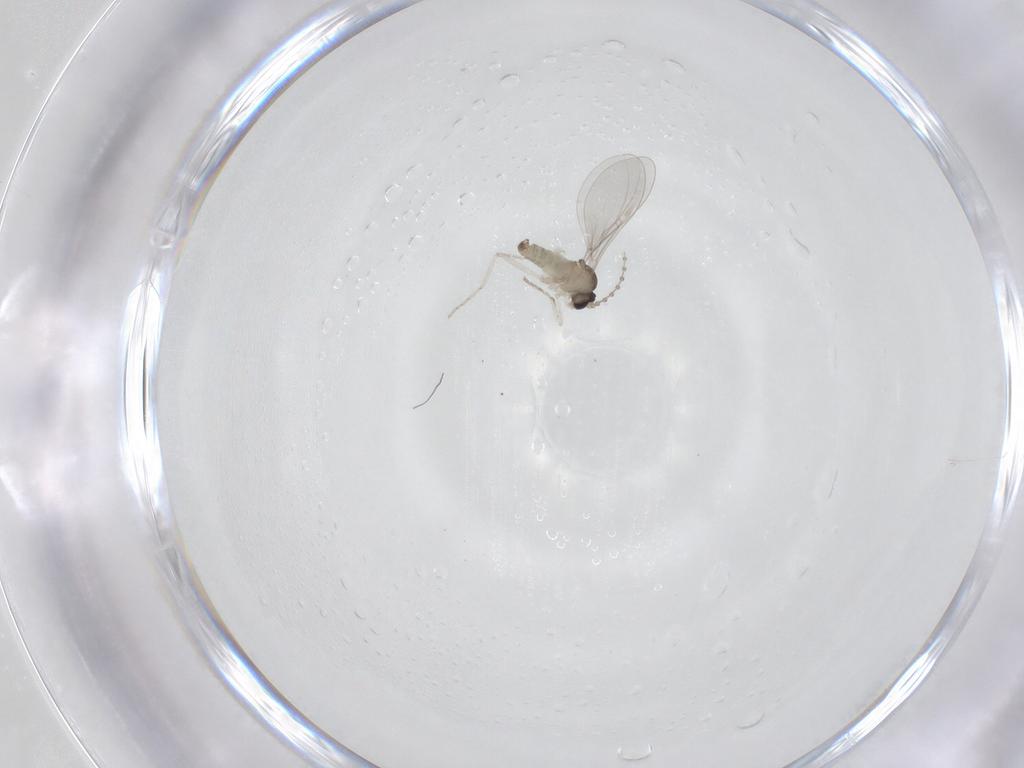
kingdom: Animalia
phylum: Arthropoda
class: Insecta
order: Diptera
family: Cecidomyiidae
